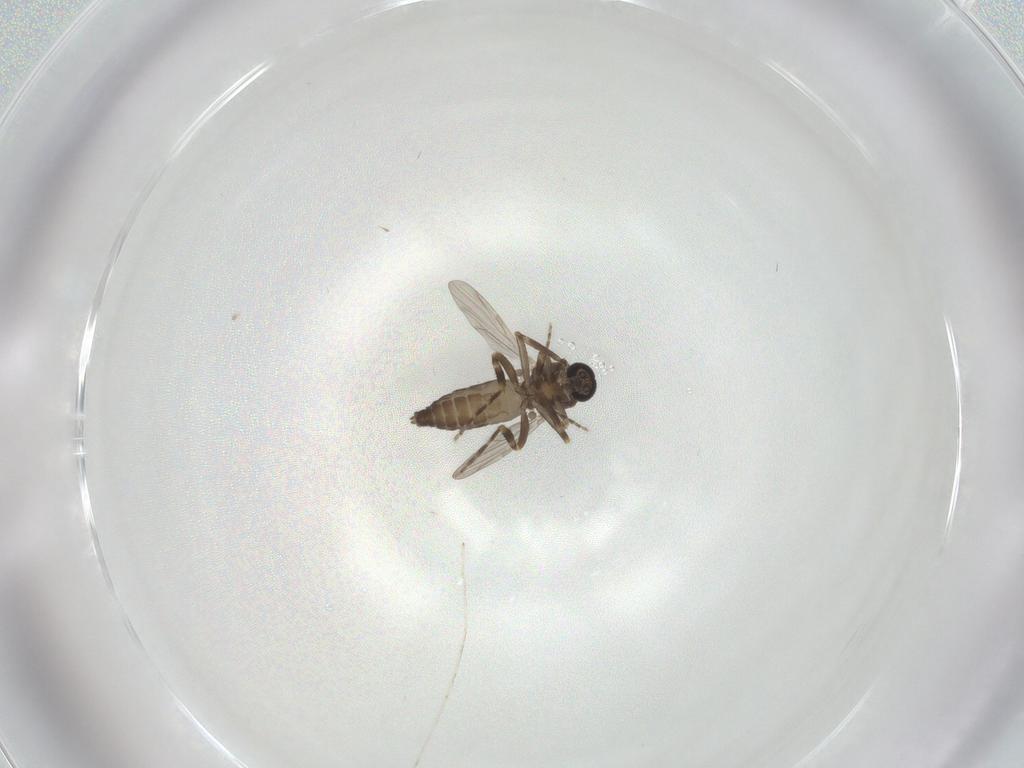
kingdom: Animalia
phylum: Arthropoda
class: Insecta
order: Diptera
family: Ceratopogonidae
